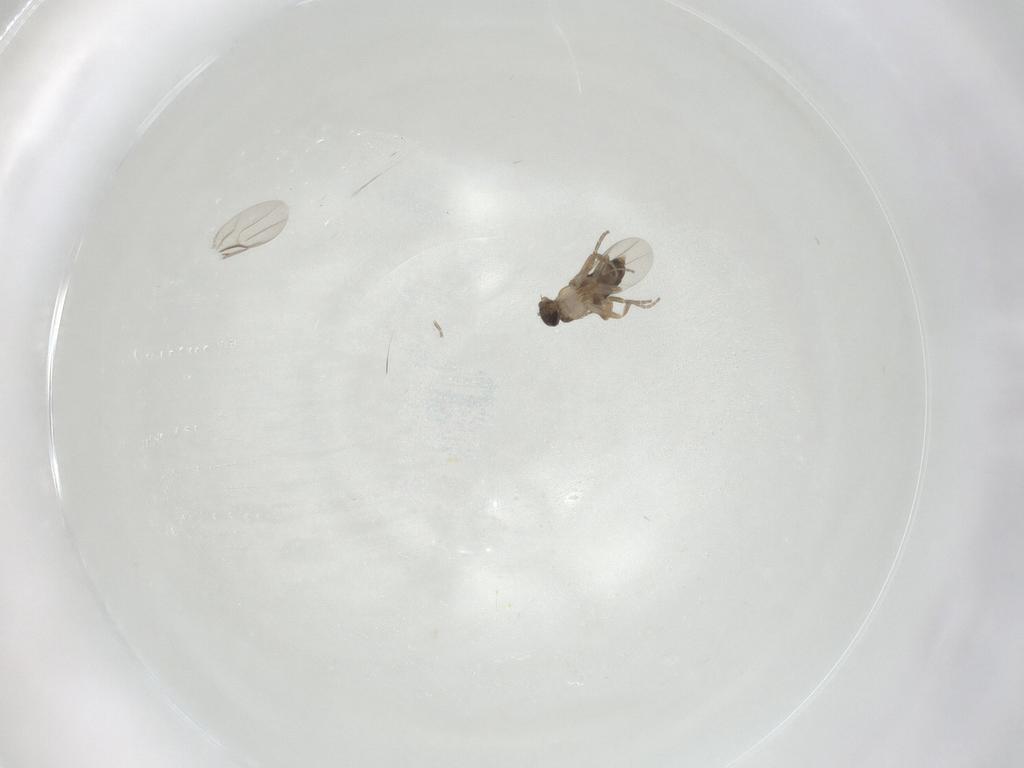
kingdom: Animalia
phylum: Arthropoda
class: Insecta
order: Diptera
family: Phoridae
